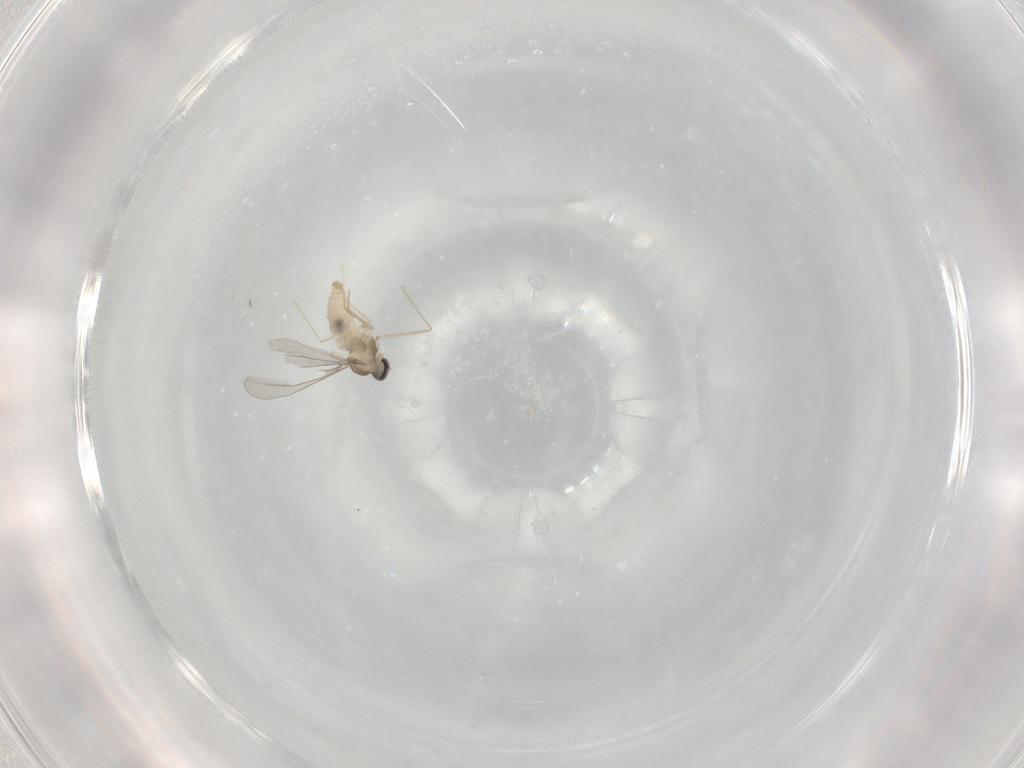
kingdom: Animalia
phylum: Arthropoda
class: Insecta
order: Diptera
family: Cecidomyiidae
